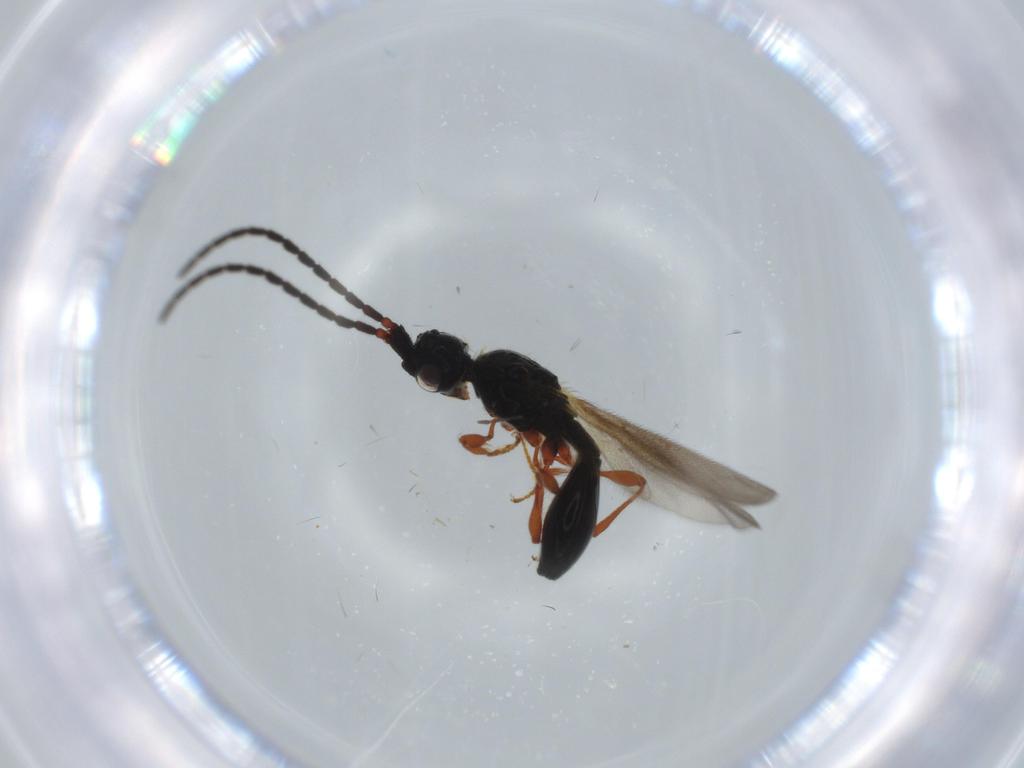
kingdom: Animalia
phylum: Arthropoda
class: Insecta
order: Hymenoptera
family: Diapriidae
